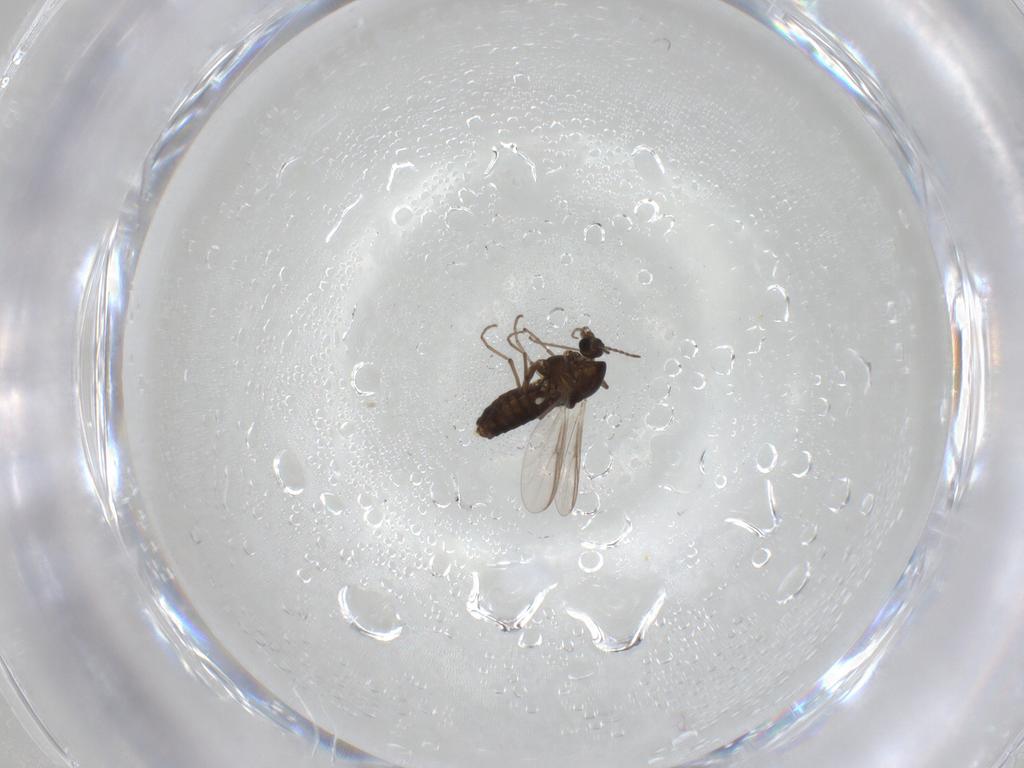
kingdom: Animalia
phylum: Arthropoda
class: Insecta
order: Diptera
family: Chironomidae
